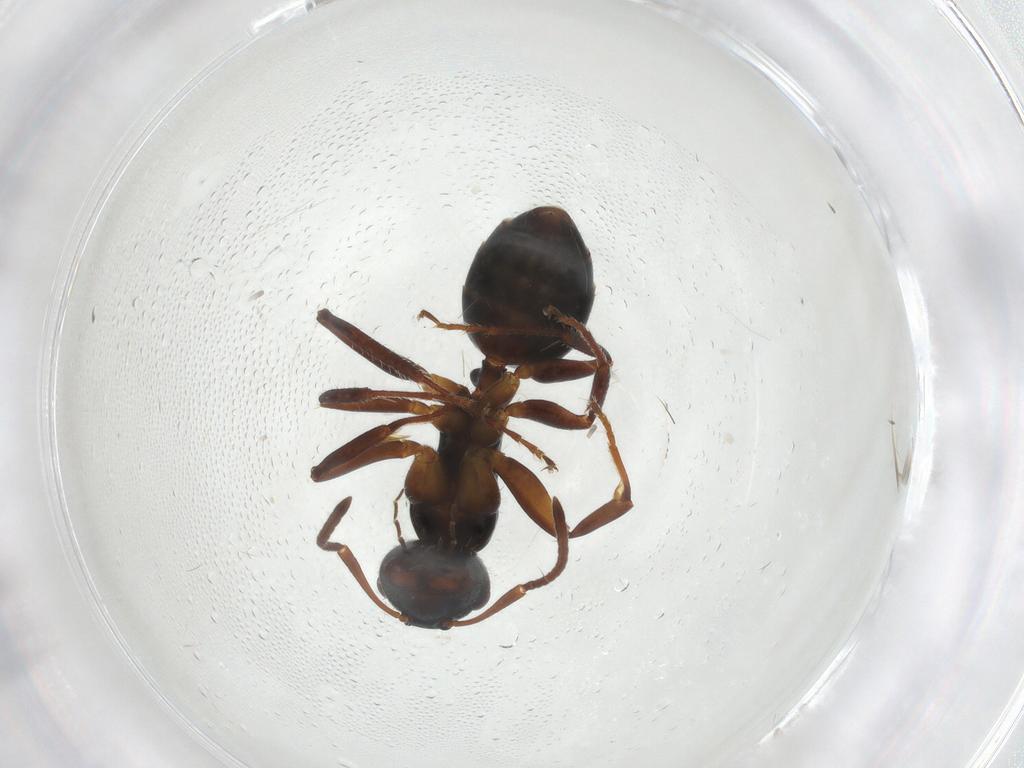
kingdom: Animalia
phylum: Arthropoda
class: Insecta
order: Hymenoptera
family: Formicidae
